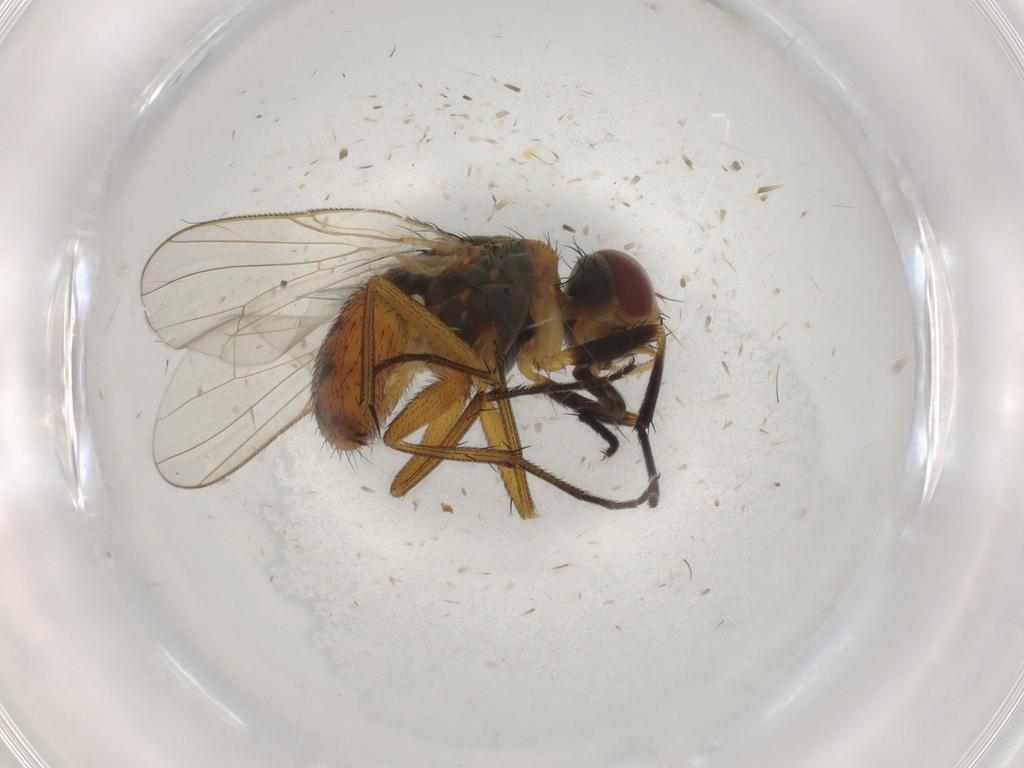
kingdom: Animalia
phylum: Arthropoda
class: Insecta
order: Diptera
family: Muscidae
